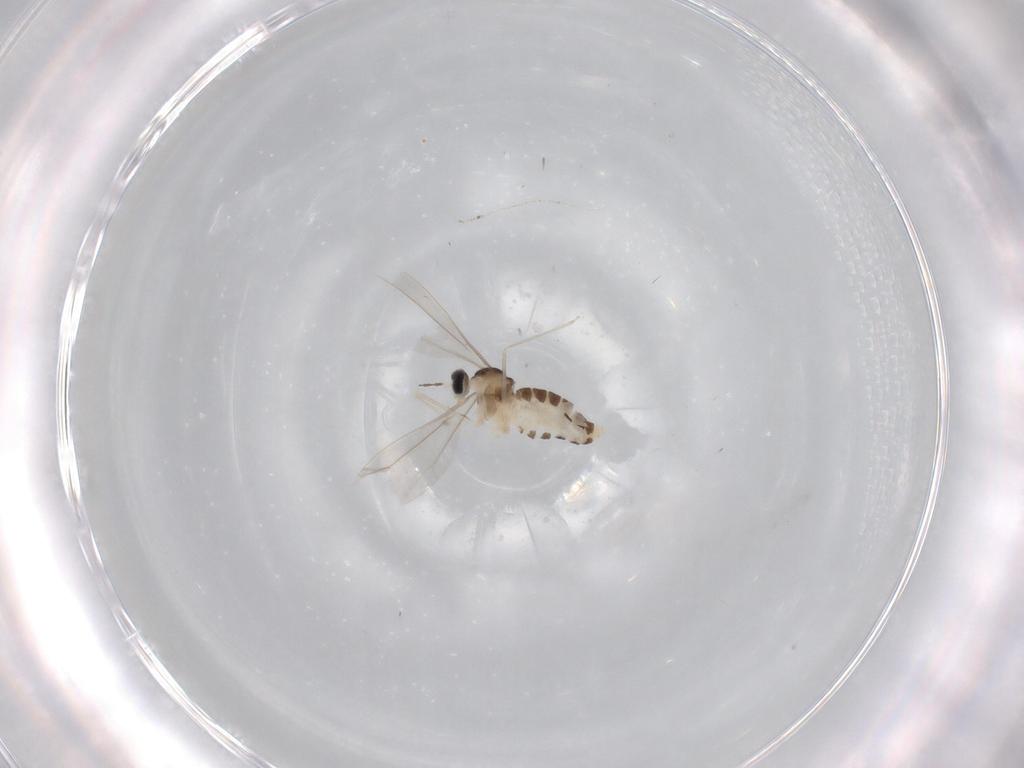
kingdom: Animalia
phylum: Arthropoda
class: Insecta
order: Diptera
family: Cecidomyiidae
